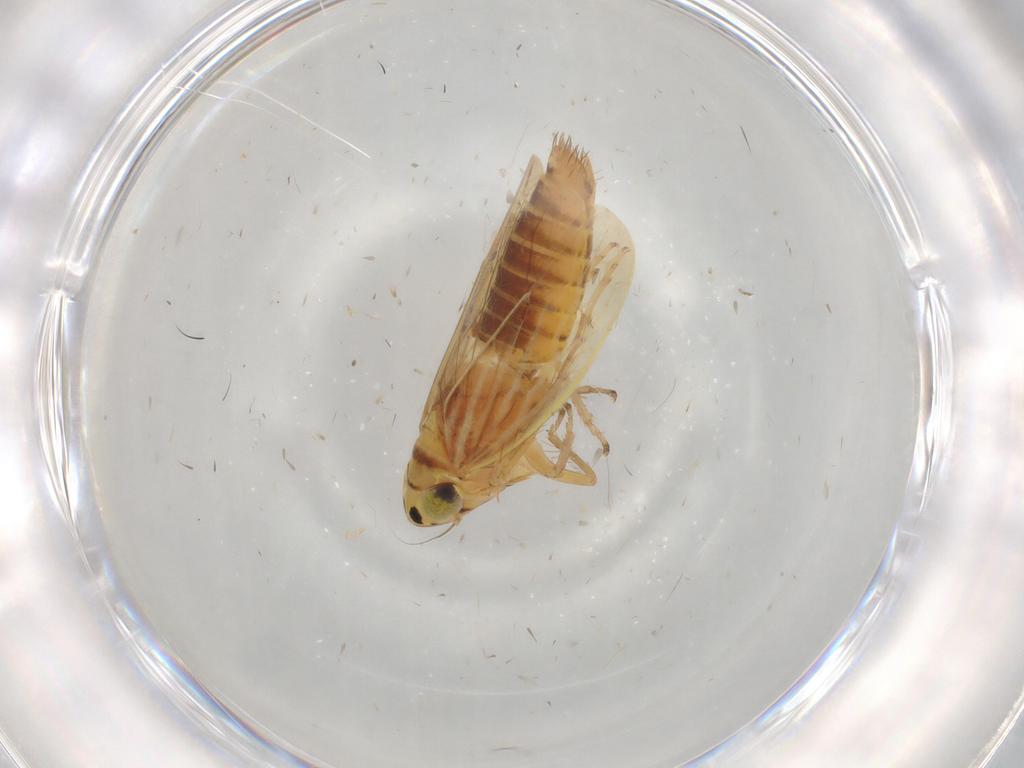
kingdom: Animalia
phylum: Arthropoda
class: Insecta
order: Hemiptera
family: Cicadellidae
